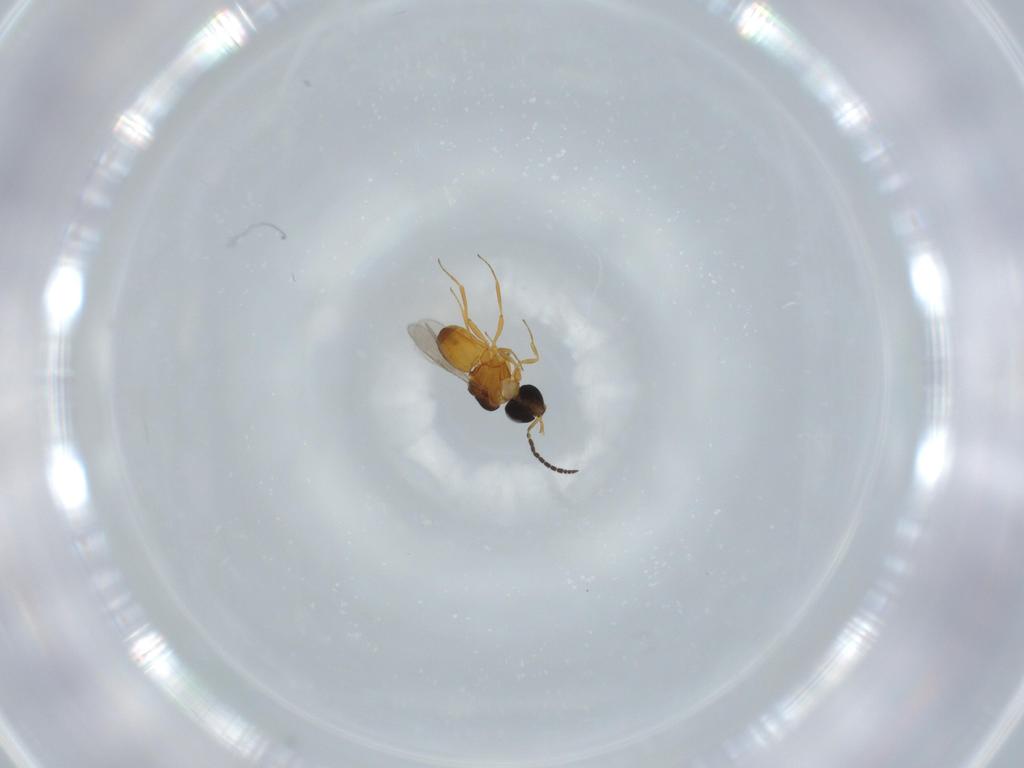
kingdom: Animalia
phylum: Arthropoda
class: Insecta
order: Hymenoptera
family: Scelionidae
